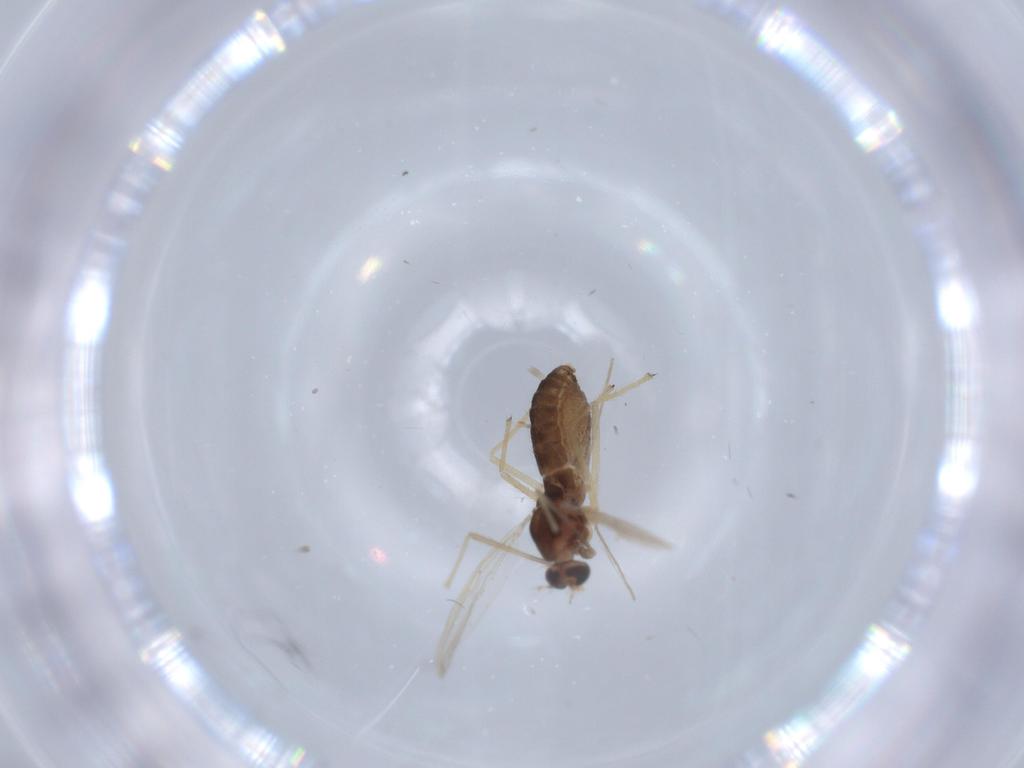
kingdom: Animalia
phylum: Arthropoda
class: Insecta
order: Diptera
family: Chironomidae
